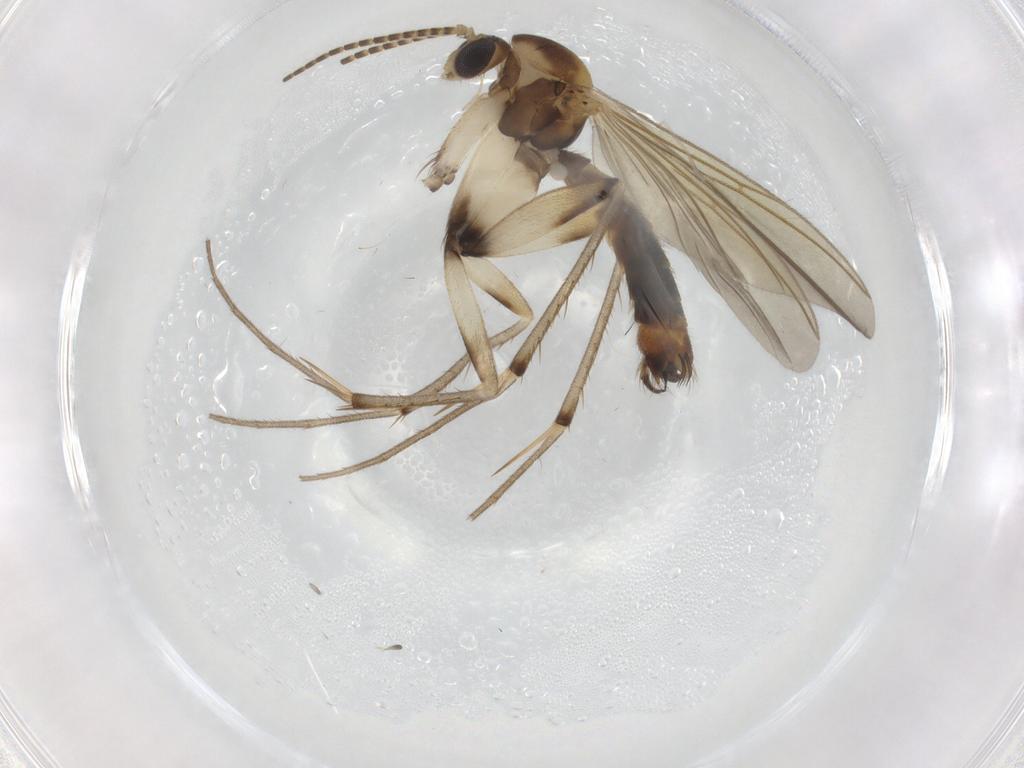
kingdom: Animalia
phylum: Arthropoda
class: Insecta
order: Diptera
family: Mycetophilidae
